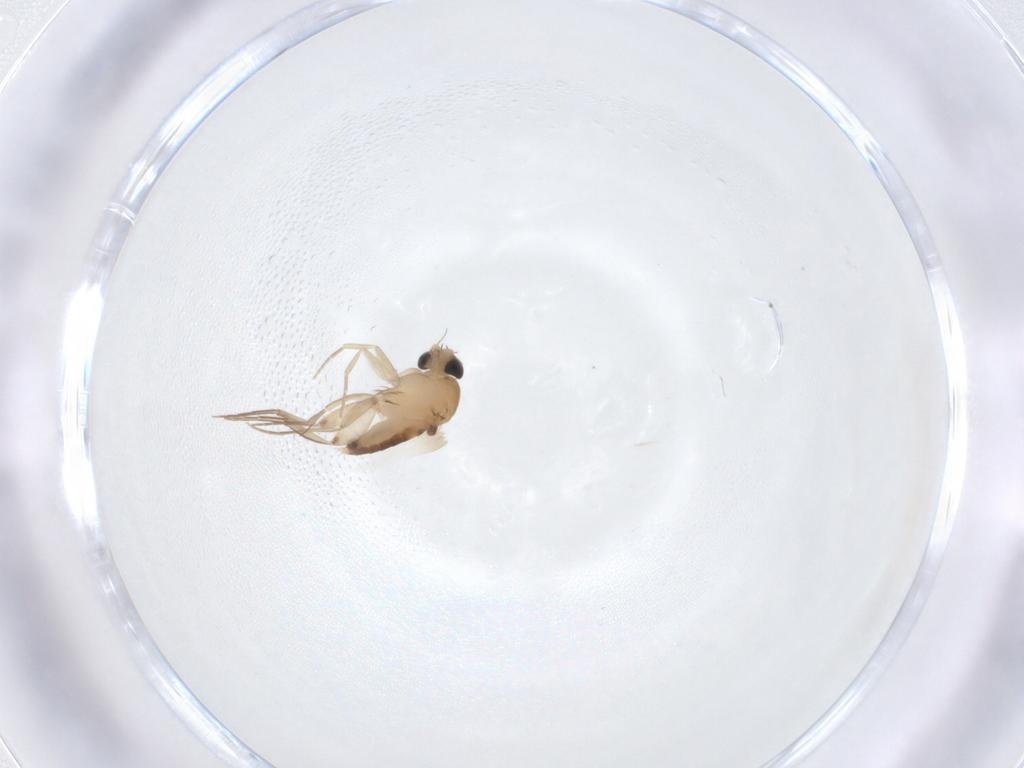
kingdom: Animalia
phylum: Arthropoda
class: Insecta
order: Diptera
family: Phoridae
